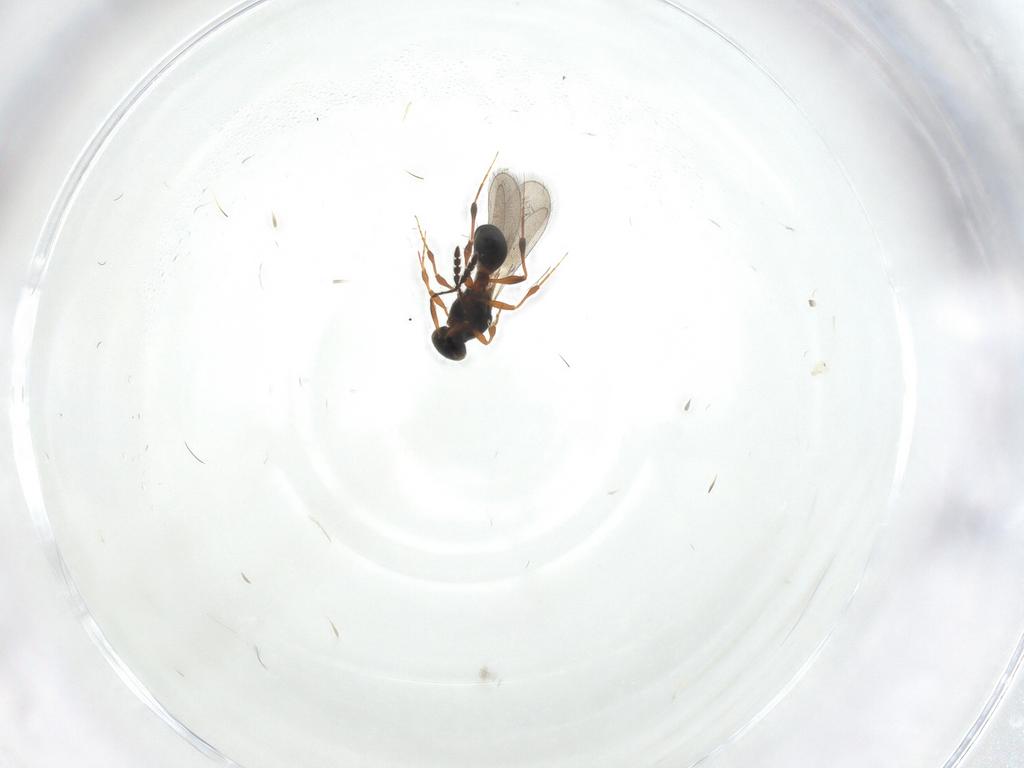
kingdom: Animalia
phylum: Arthropoda
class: Insecta
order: Hymenoptera
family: Platygastridae
